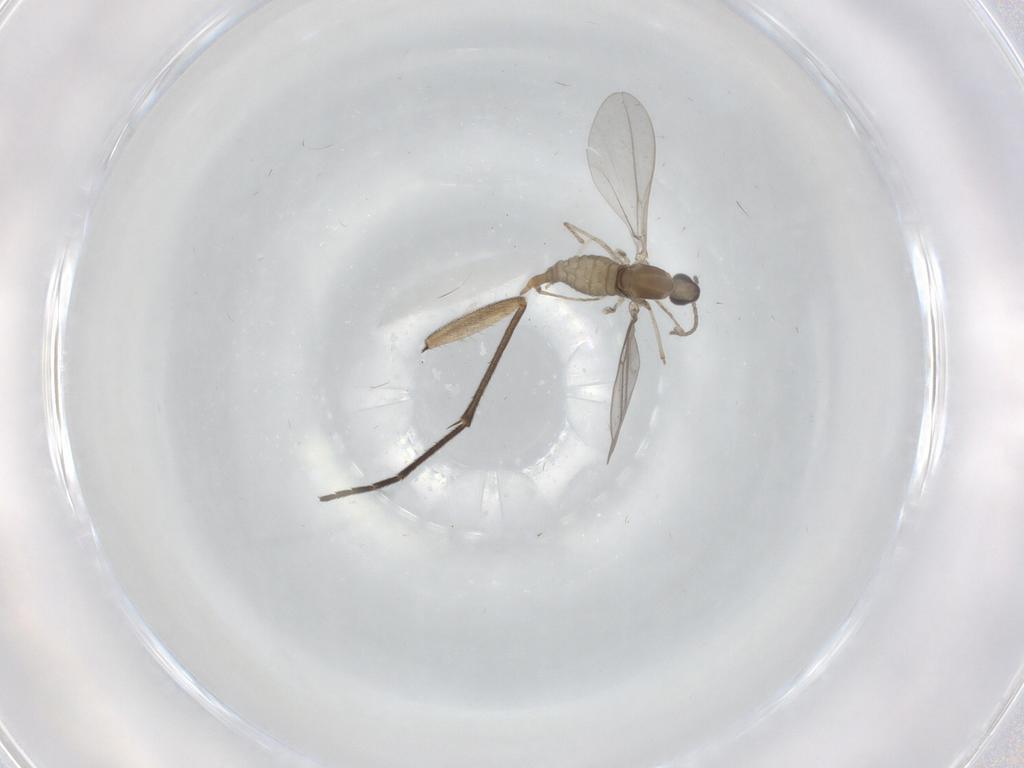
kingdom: Animalia
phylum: Arthropoda
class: Insecta
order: Diptera
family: Cecidomyiidae
